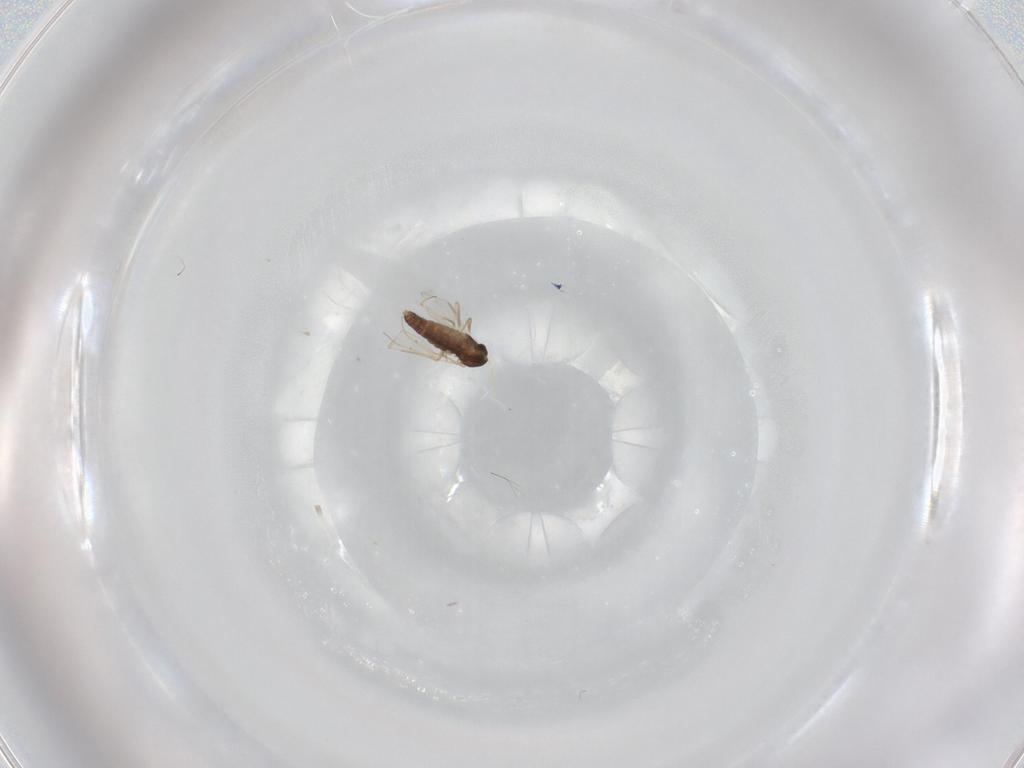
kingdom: Animalia
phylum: Arthropoda
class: Insecta
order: Diptera
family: Chironomidae
